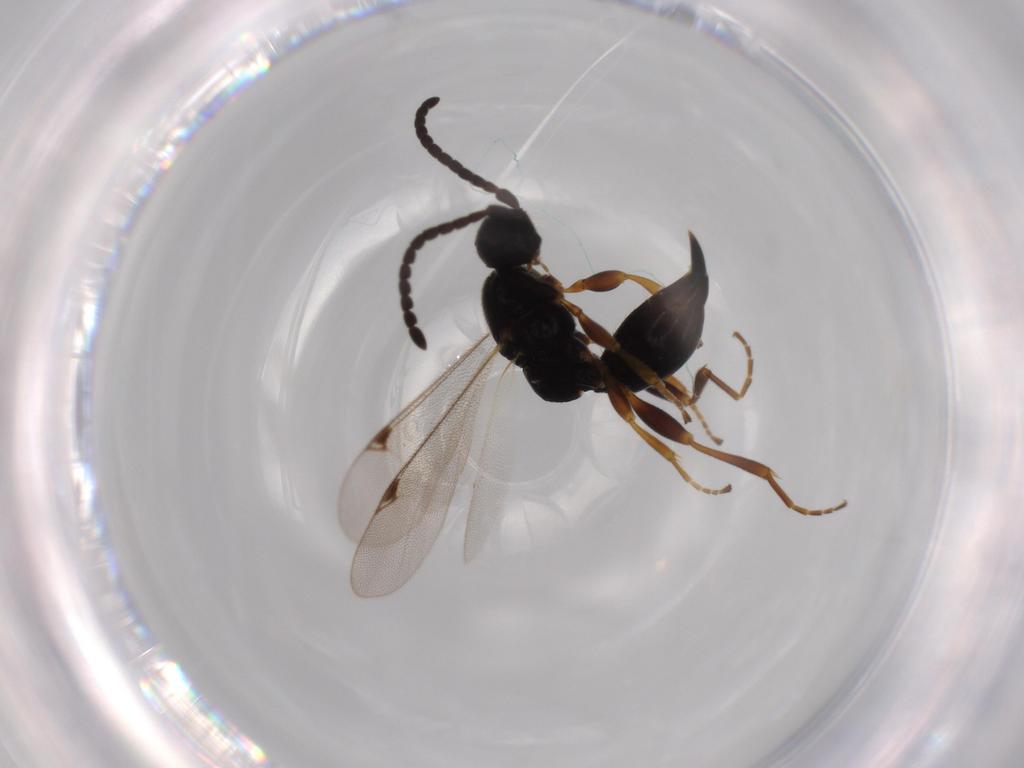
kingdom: Animalia
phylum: Arthropoda
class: Insecta
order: Hymenoptera
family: Proctotrupidae
